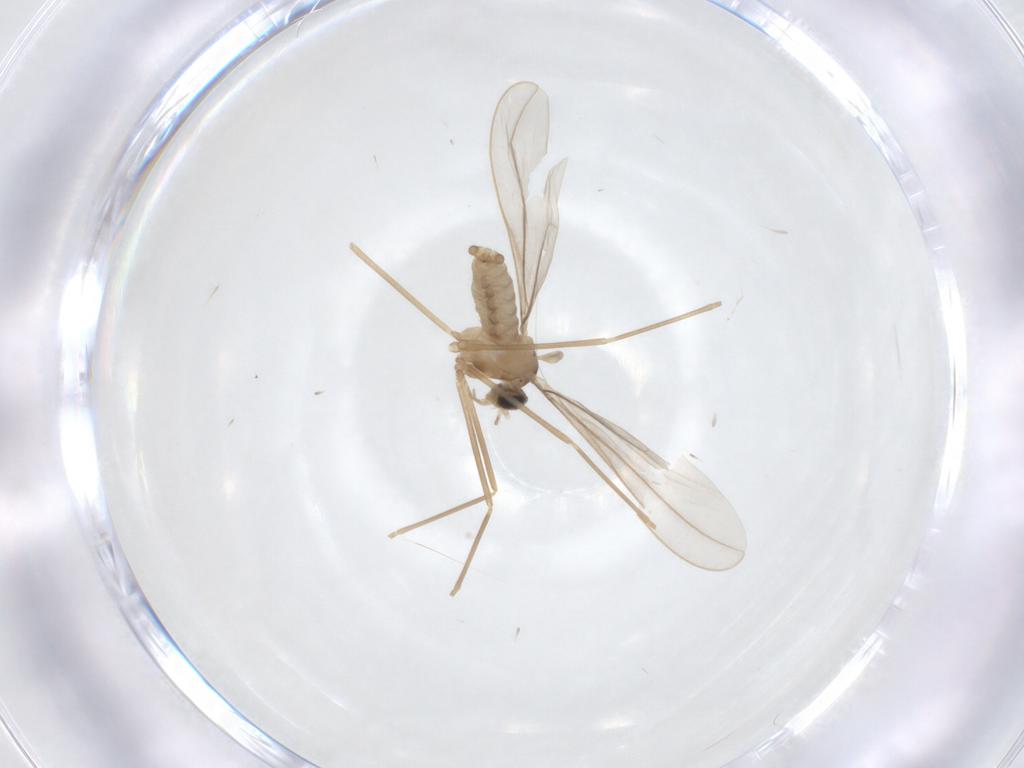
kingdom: Animalia
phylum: Arthropoda
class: Insecta
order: Diptera
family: Cecidomyiidae
